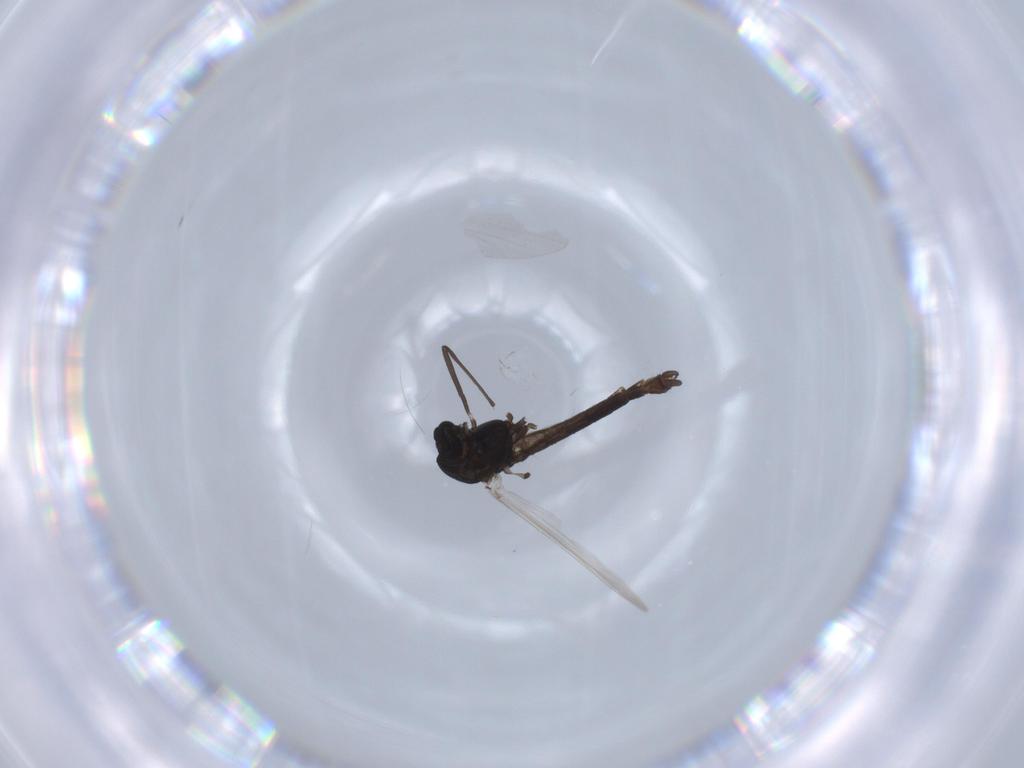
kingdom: Animalia
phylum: Arthropoda
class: Insecta
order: Diptera
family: Chironomidae
